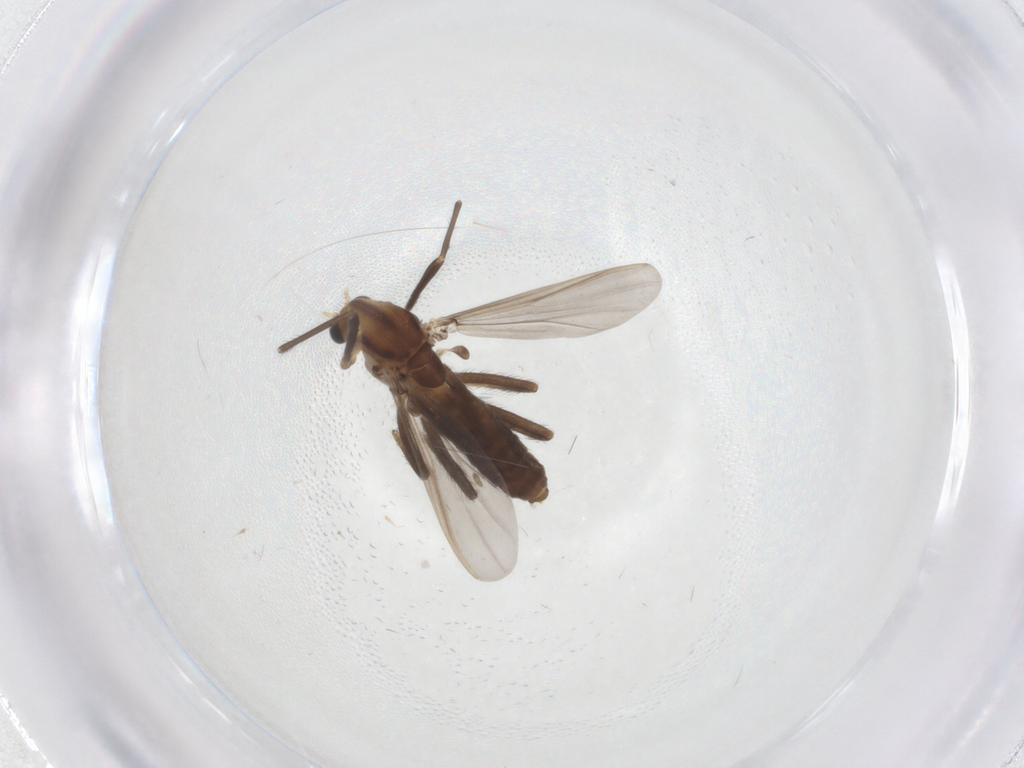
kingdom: Animalia
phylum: Arthropoda
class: Insecta
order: Diptera
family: Chironomidae
